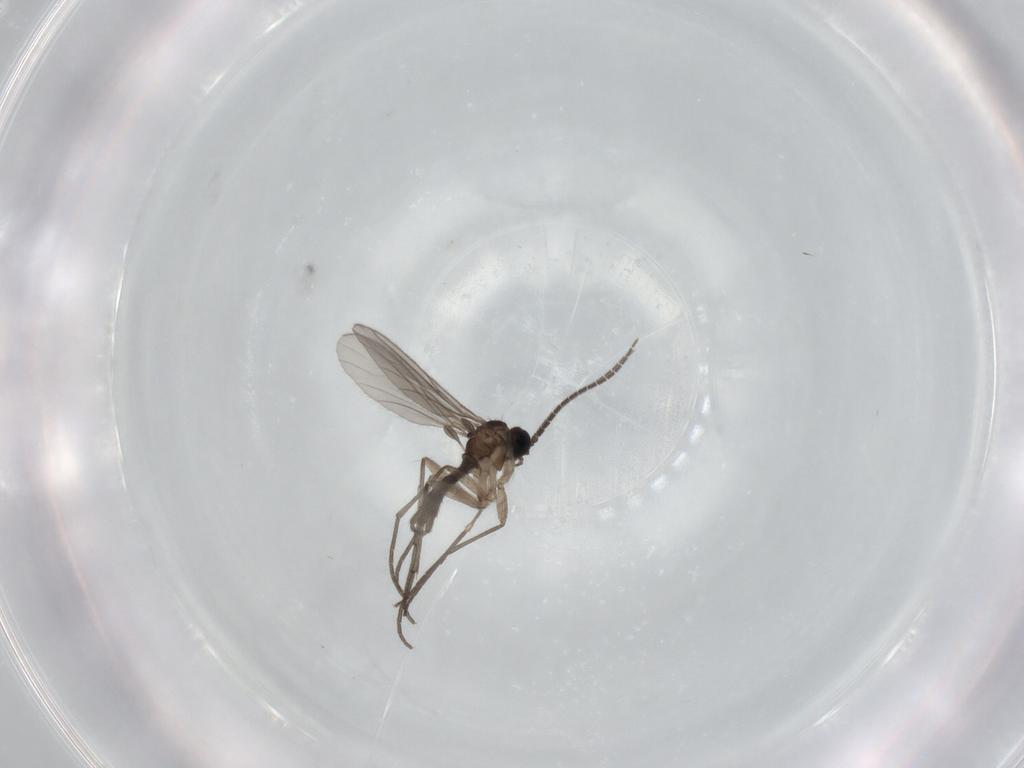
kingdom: Animalia
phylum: Arthropoda
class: Insecta
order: Diptera
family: Sciaridae
